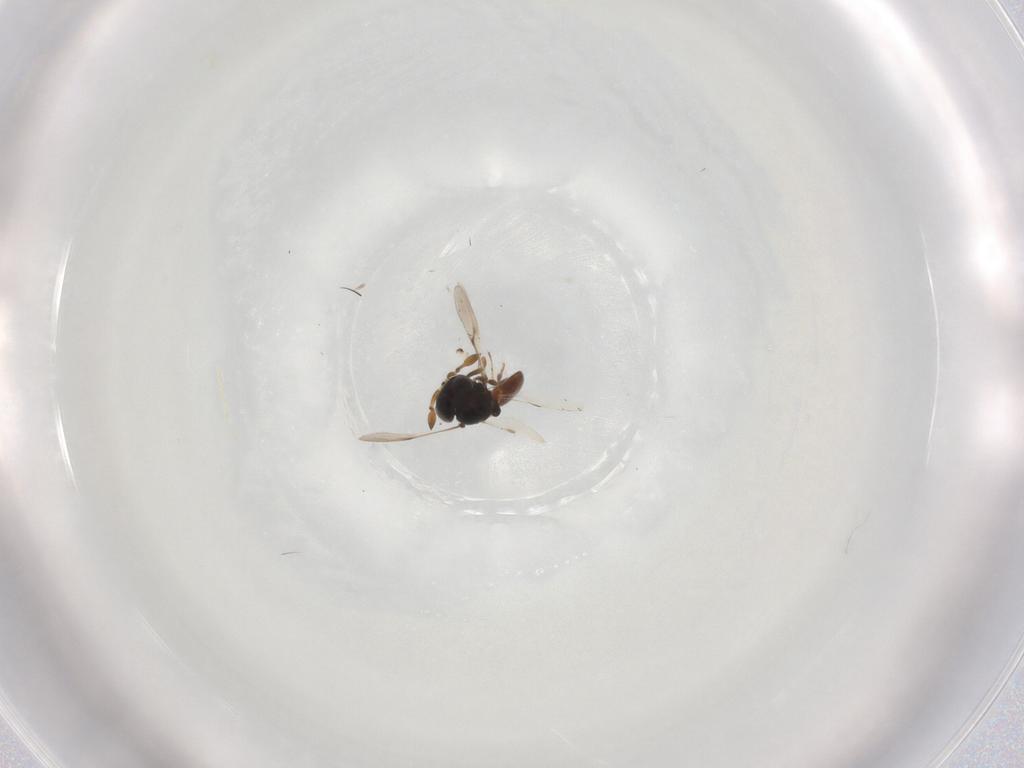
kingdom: Animalia
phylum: Arthropoda
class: Insecta
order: Hymenoptera
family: Scelionidae
